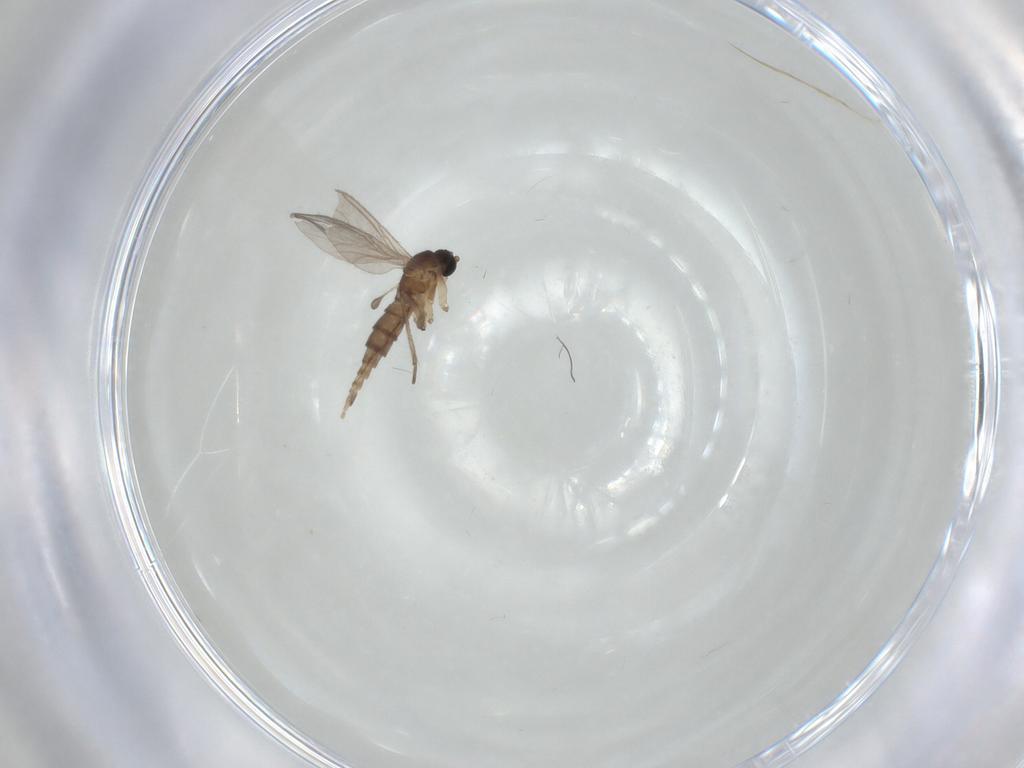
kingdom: Animalia
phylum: Arthropoda
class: Insecta
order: Diptera
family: Sciaridae
